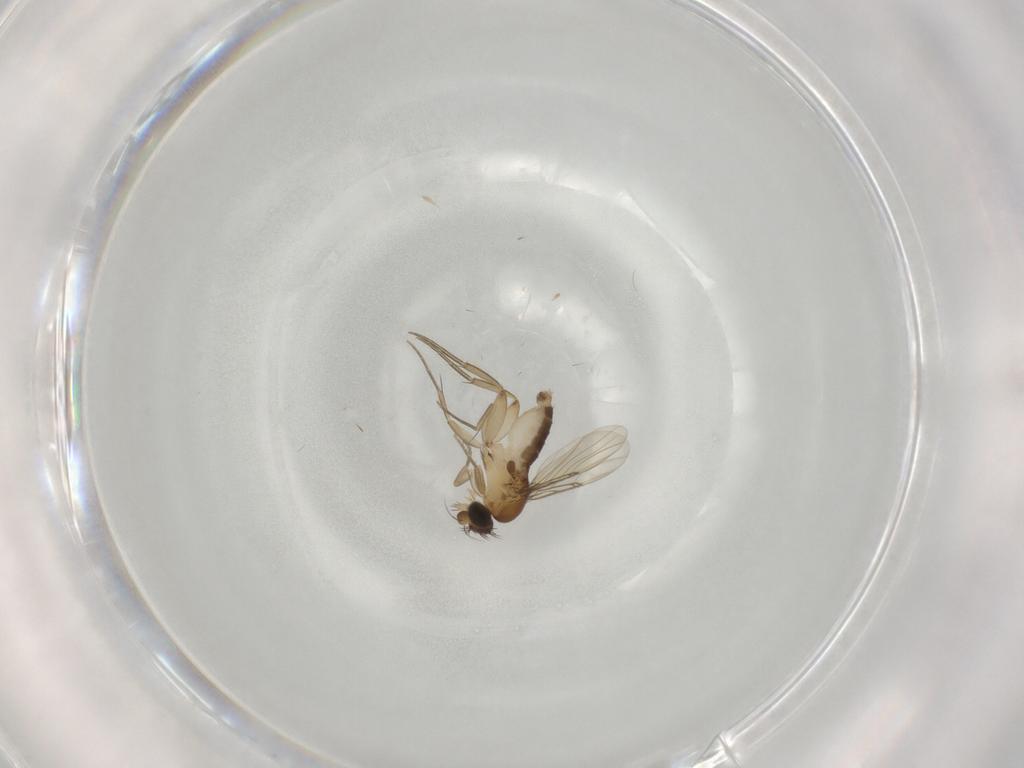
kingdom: Animalia
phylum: Arthropoda
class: Insecta
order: Diptera
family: Phoridae
